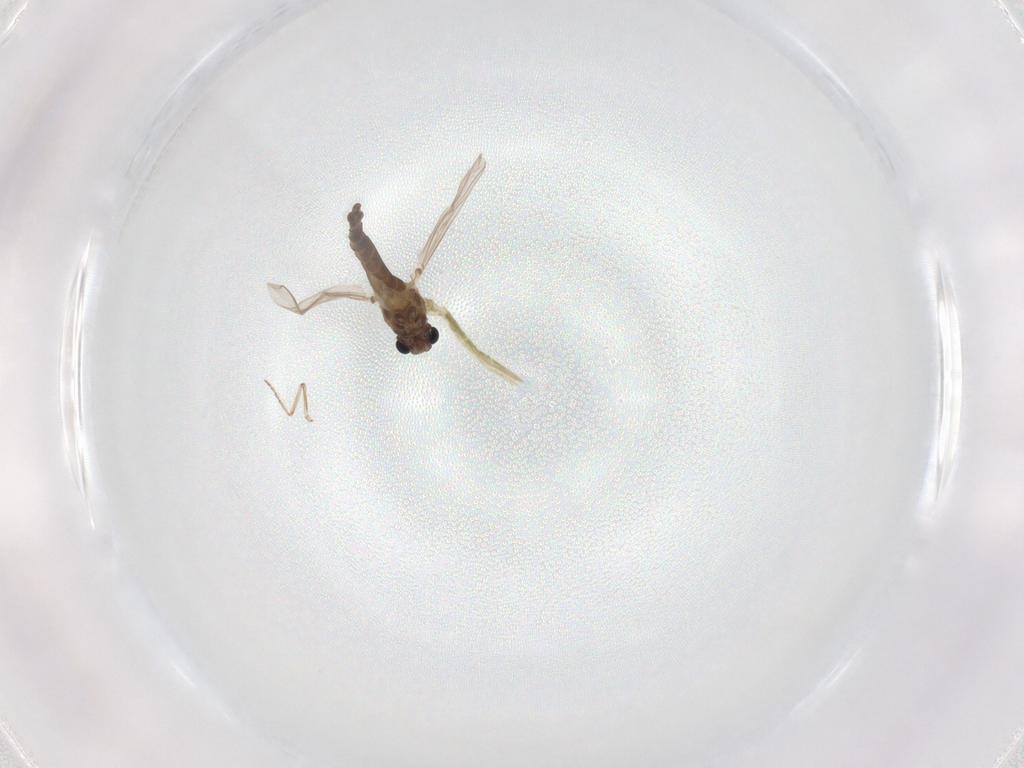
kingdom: Animalia
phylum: Arthropoda
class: Insecta
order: Diptera
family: Chironomidae
